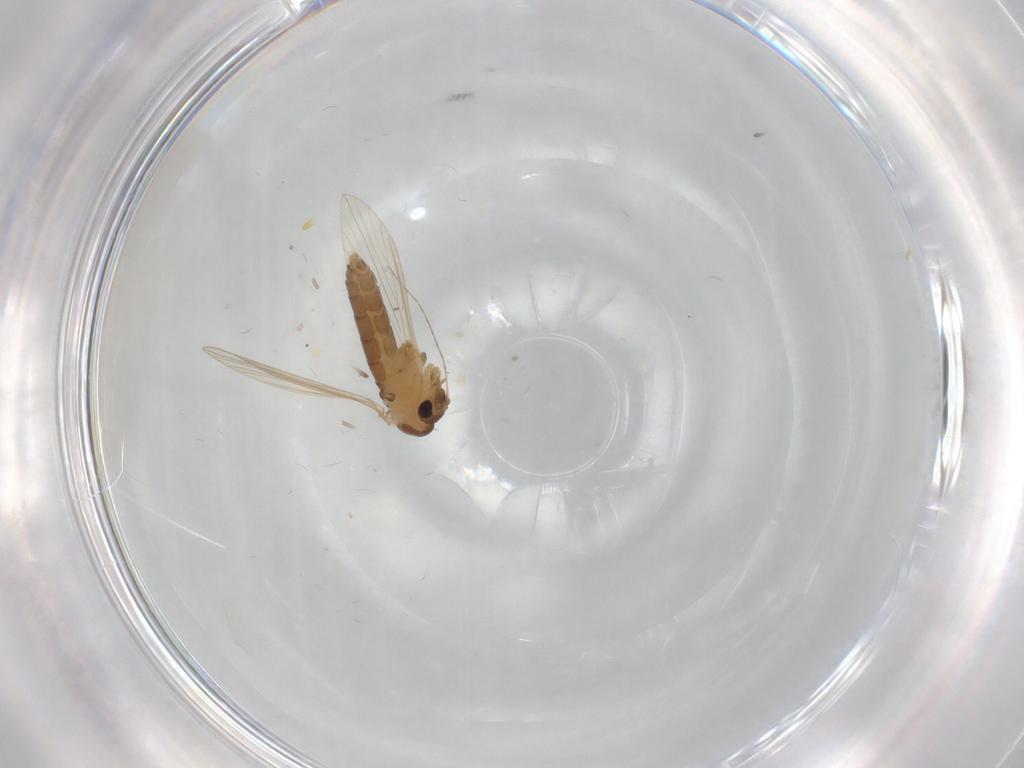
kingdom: Animalia
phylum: Arthropoda
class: Insecta
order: Diptera
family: Psychodidae
